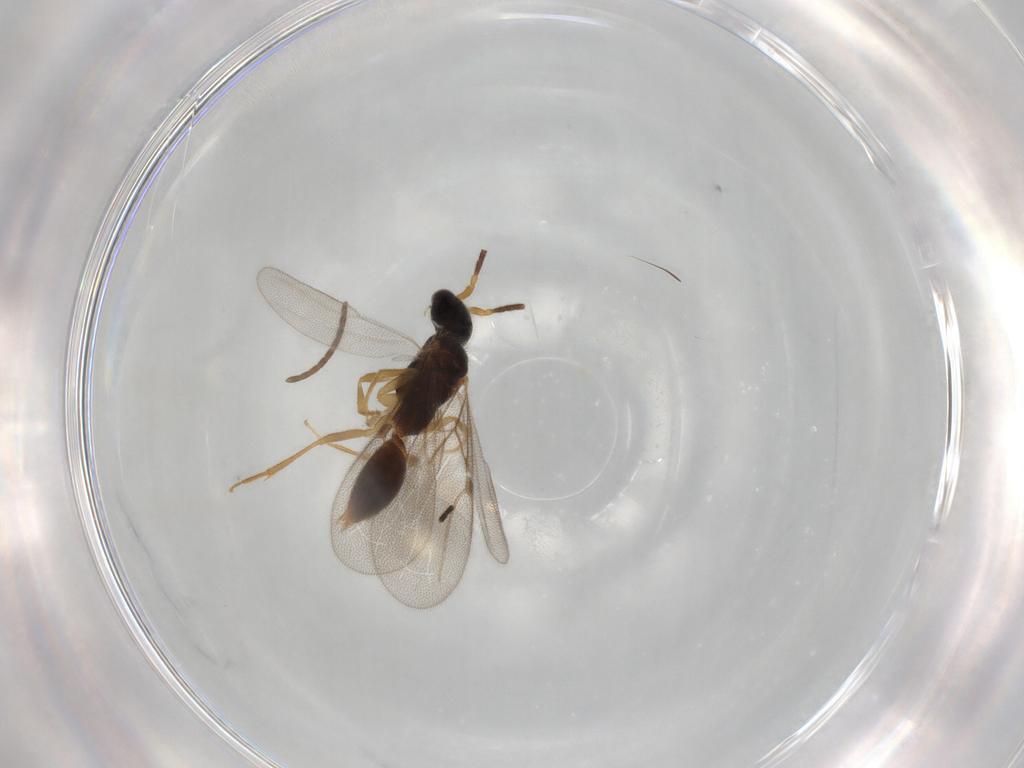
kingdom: Animalia
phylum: Arthropoda
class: Insecta
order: Hymenoptera
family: Bethylidae
